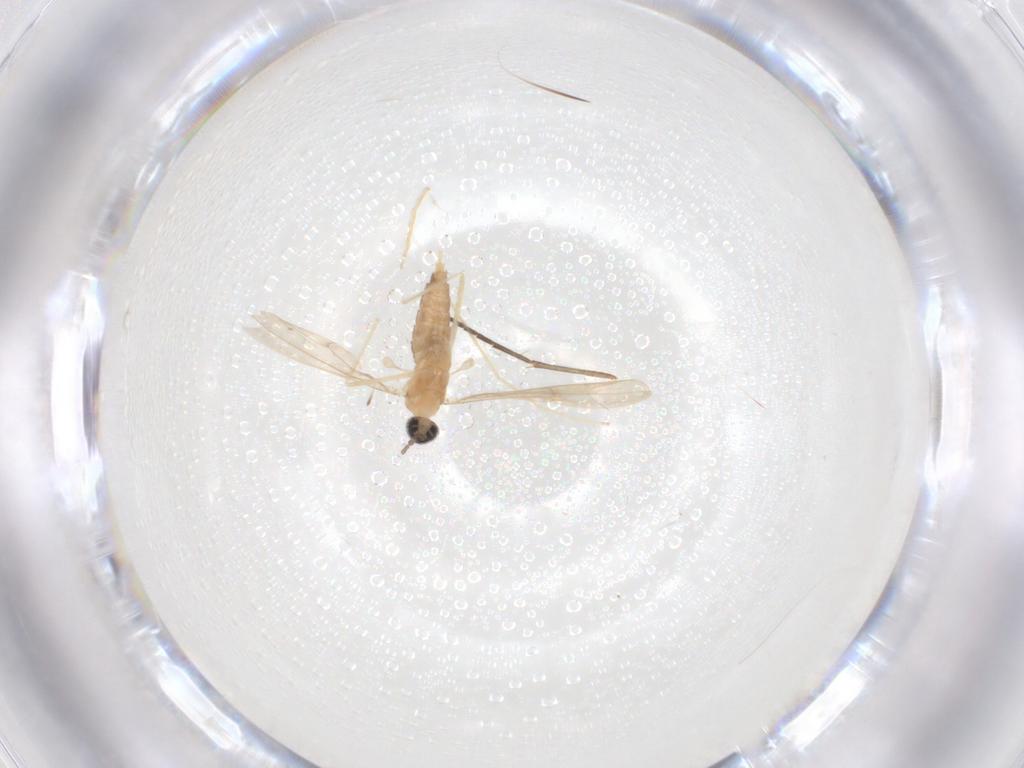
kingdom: Animalia
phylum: Arthropoda
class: Insecta
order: Diptera
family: Cecidomyiidae
